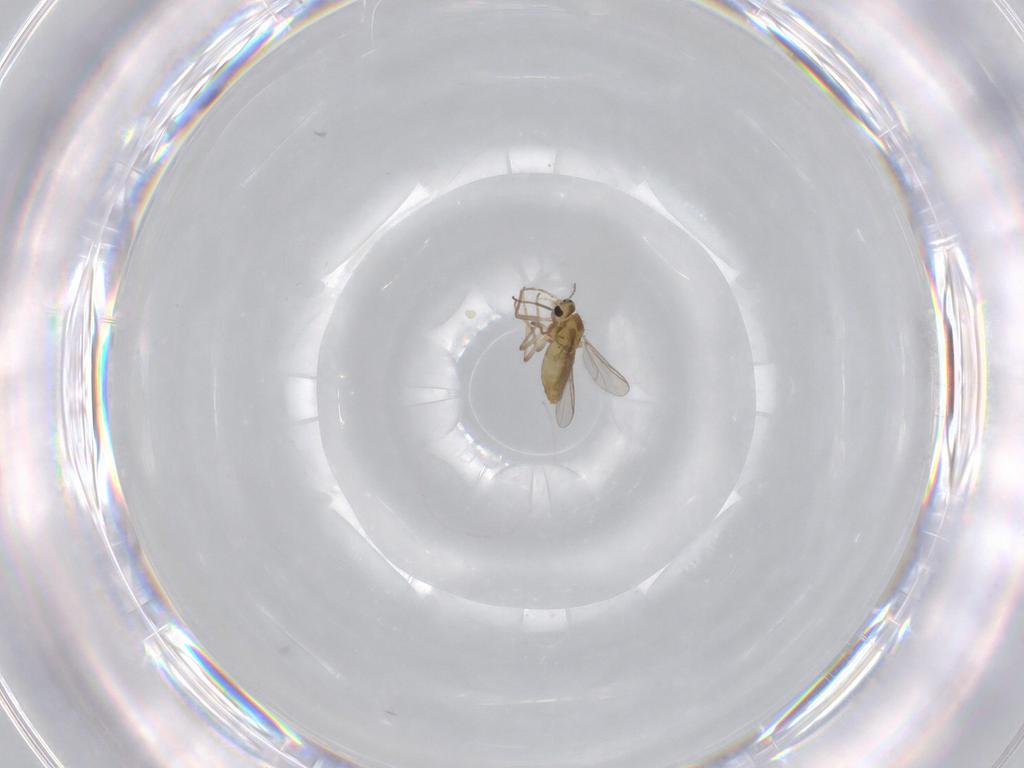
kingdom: Animalia
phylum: Arthropoda
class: Insecta
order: Diptera
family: Chironomidae
